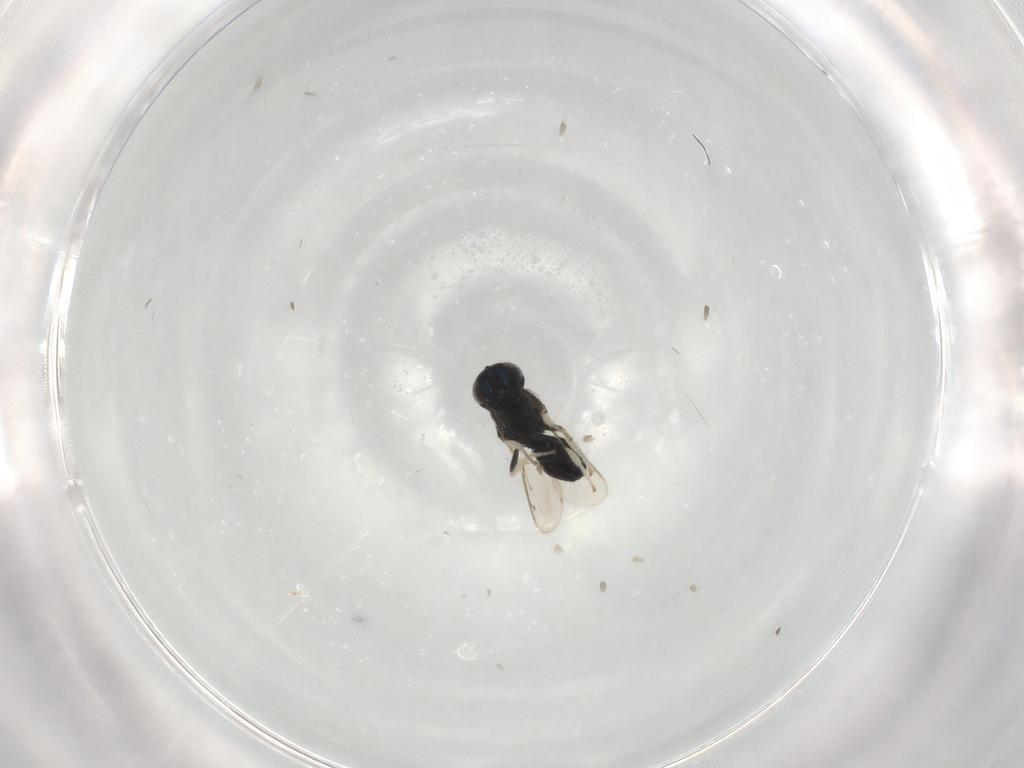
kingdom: Animalia
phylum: Arthropoda
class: Insecta
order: Hymenoptera
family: Herbertiidae
